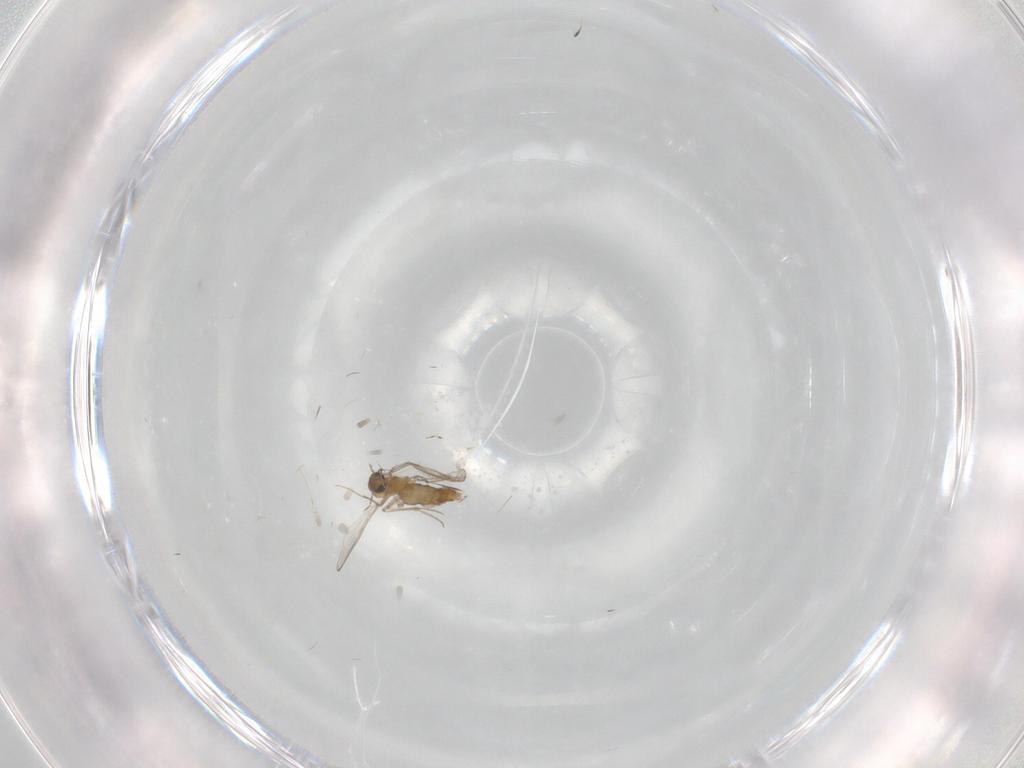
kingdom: Animalia
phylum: Arthropoda
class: Insecta
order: Diptera
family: Chironomidae
